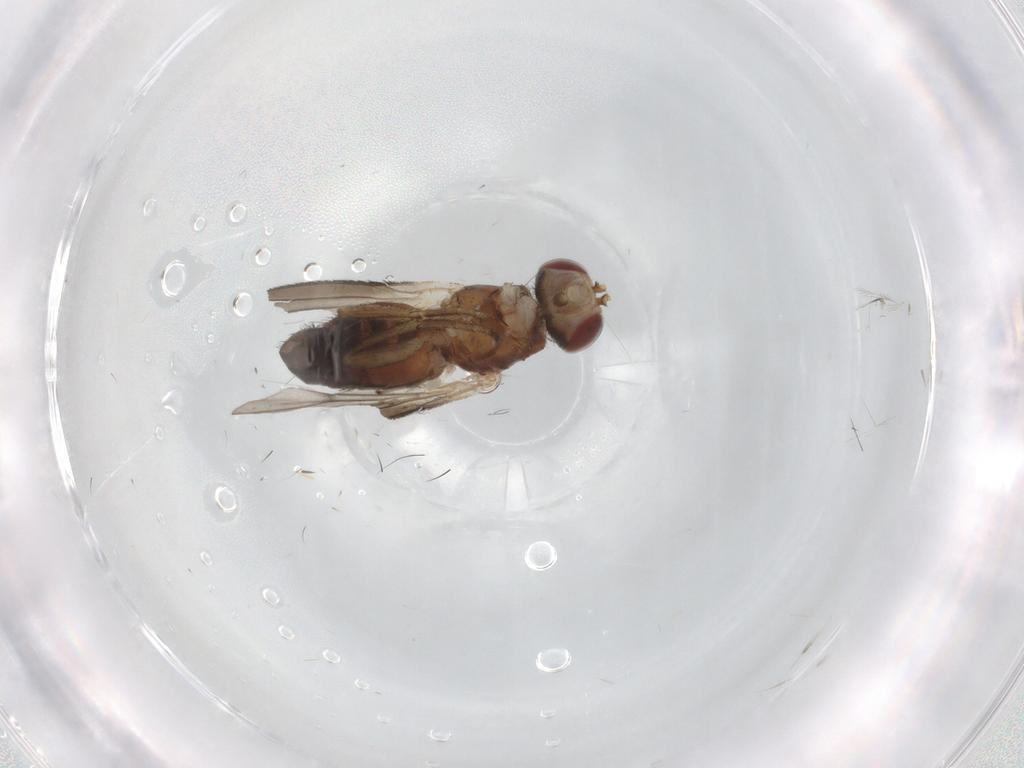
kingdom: Animalia
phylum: Arthropoda
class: Insecta
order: Diptera
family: Heleomyzidae
